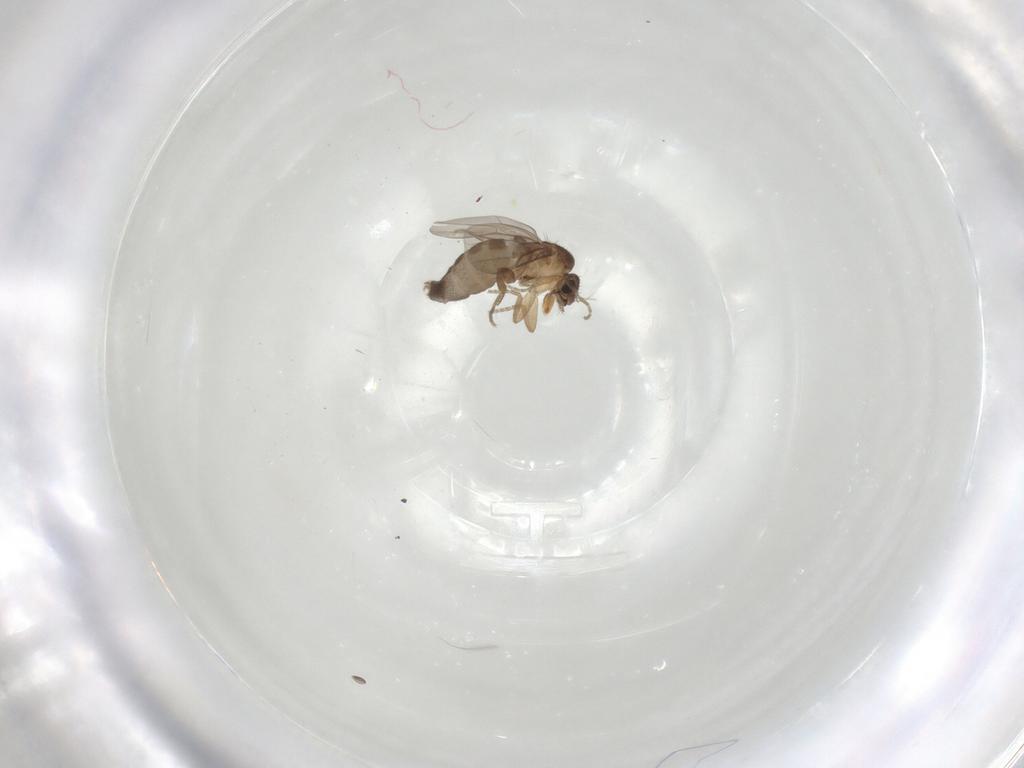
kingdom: Animalia
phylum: Arthropoda
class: Insecta
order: Diptera
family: Phoridae
